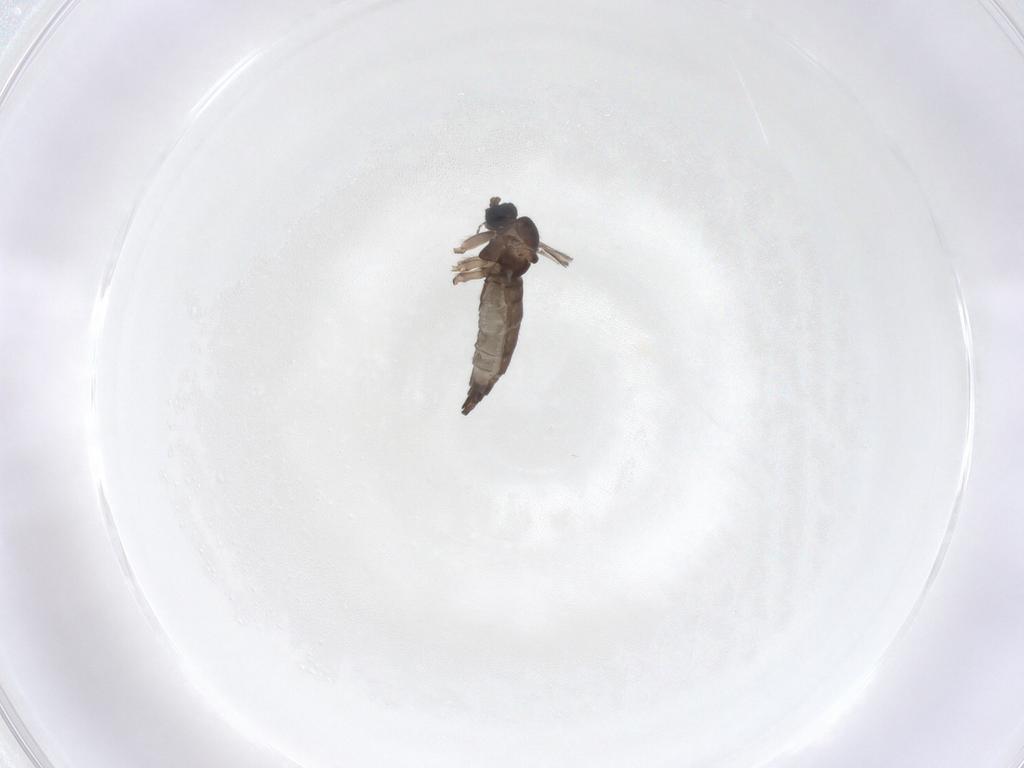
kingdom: Animalia
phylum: Arthropoda
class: Insecta
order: Diptera
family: Sciaridae
